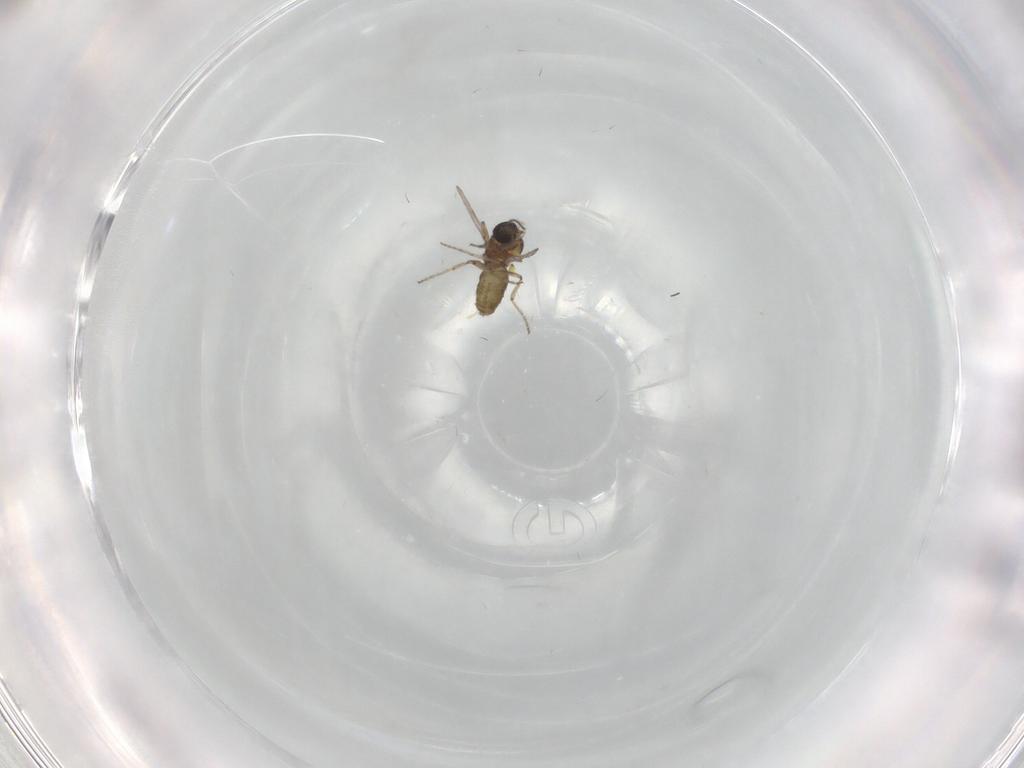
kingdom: Animalia
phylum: Arthropoda
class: Insecta
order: Diptera
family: Ceratopogonidae
